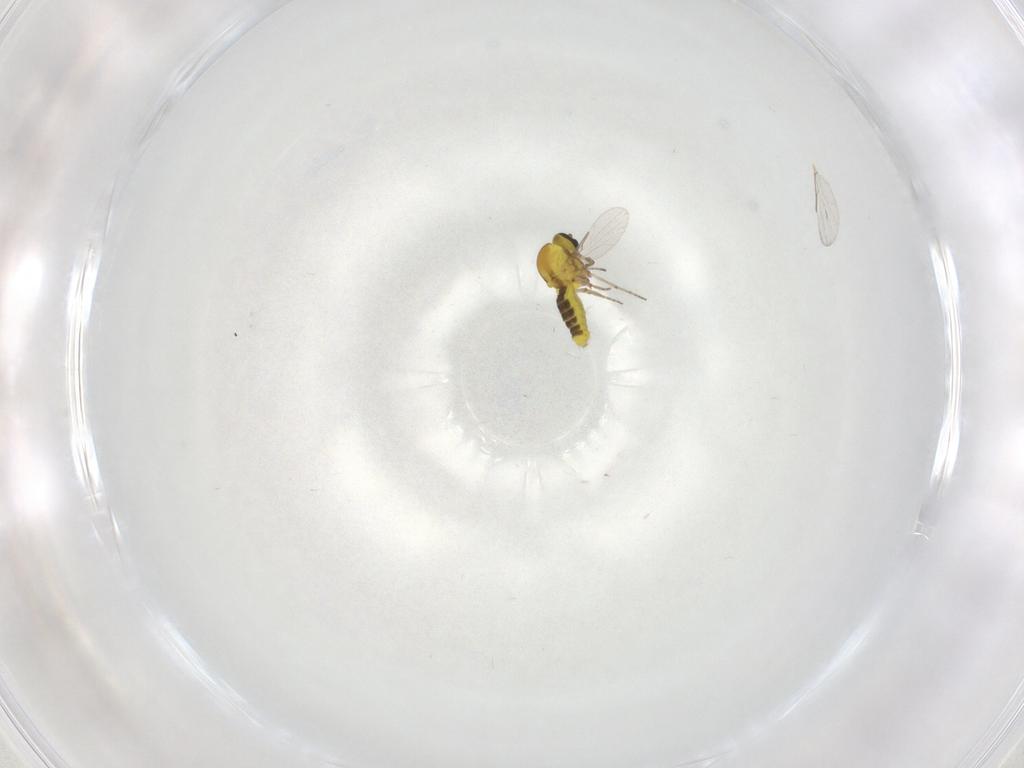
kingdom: Animalia
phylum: Arthropoda
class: Insecta
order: Diptera
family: Ceratopogonidae
